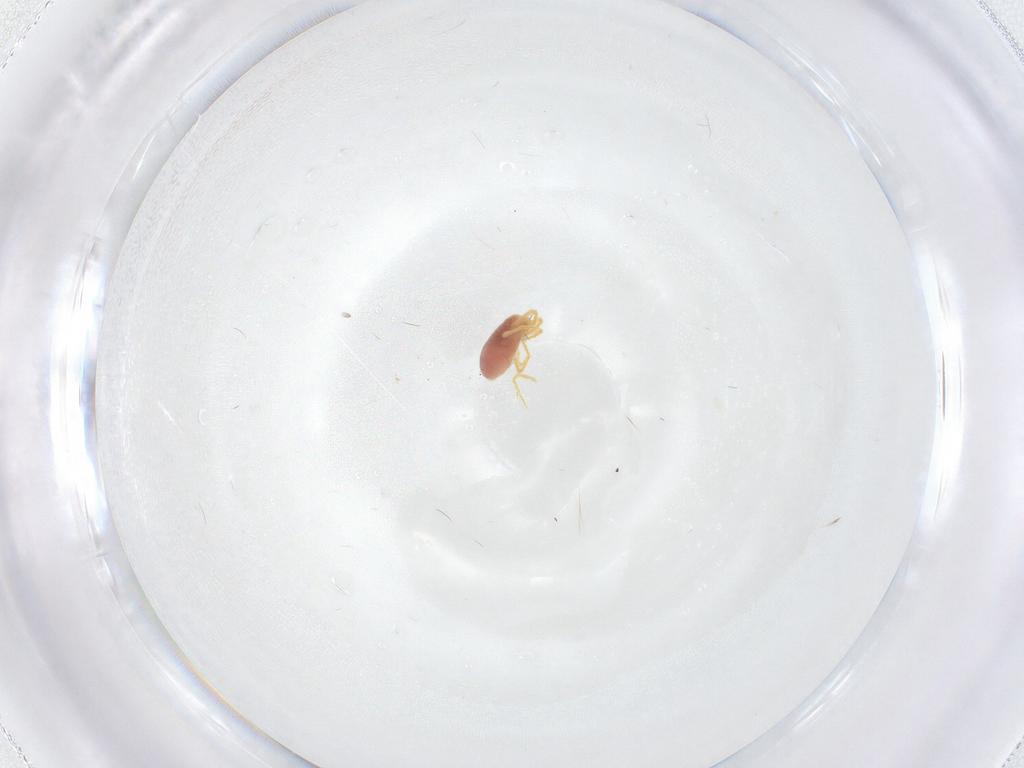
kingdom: Animalia
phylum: Arthropoda
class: Arachnida
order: Trombidiformes
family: Sphaerolichidae
